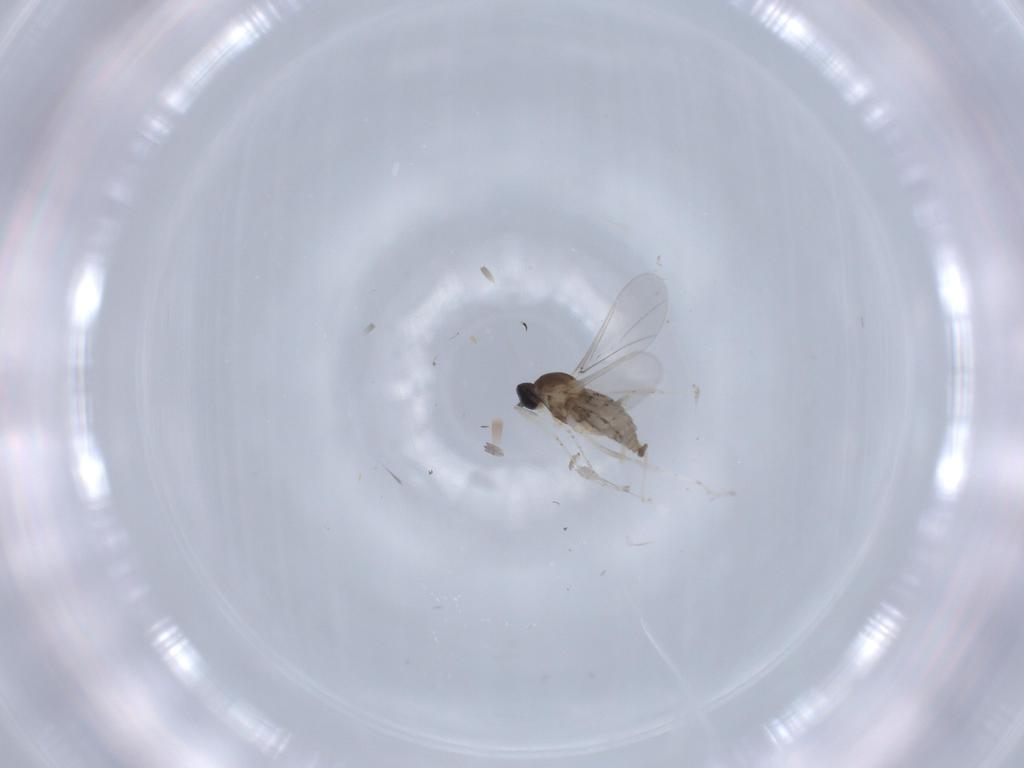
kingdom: Animalia
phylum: Arthropoda
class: Insecta
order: Diptera
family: Cecidomyiidae
